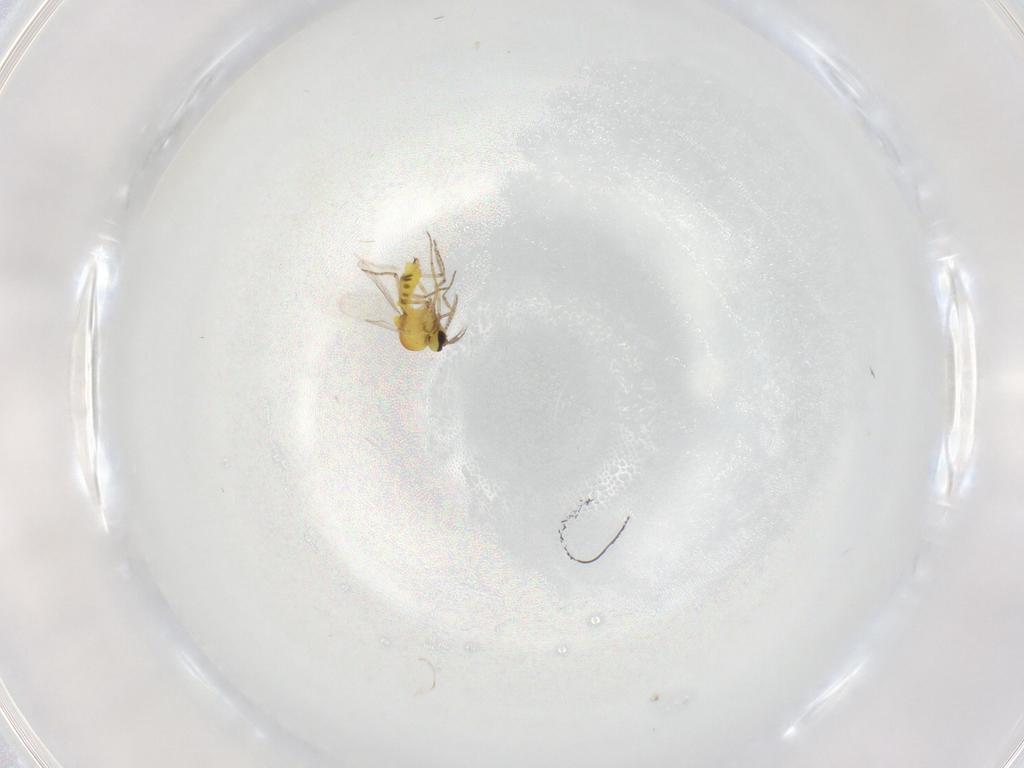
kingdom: Animalia
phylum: Arthropoda
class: Insecta
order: Diptera
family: Ceratopogonidae
